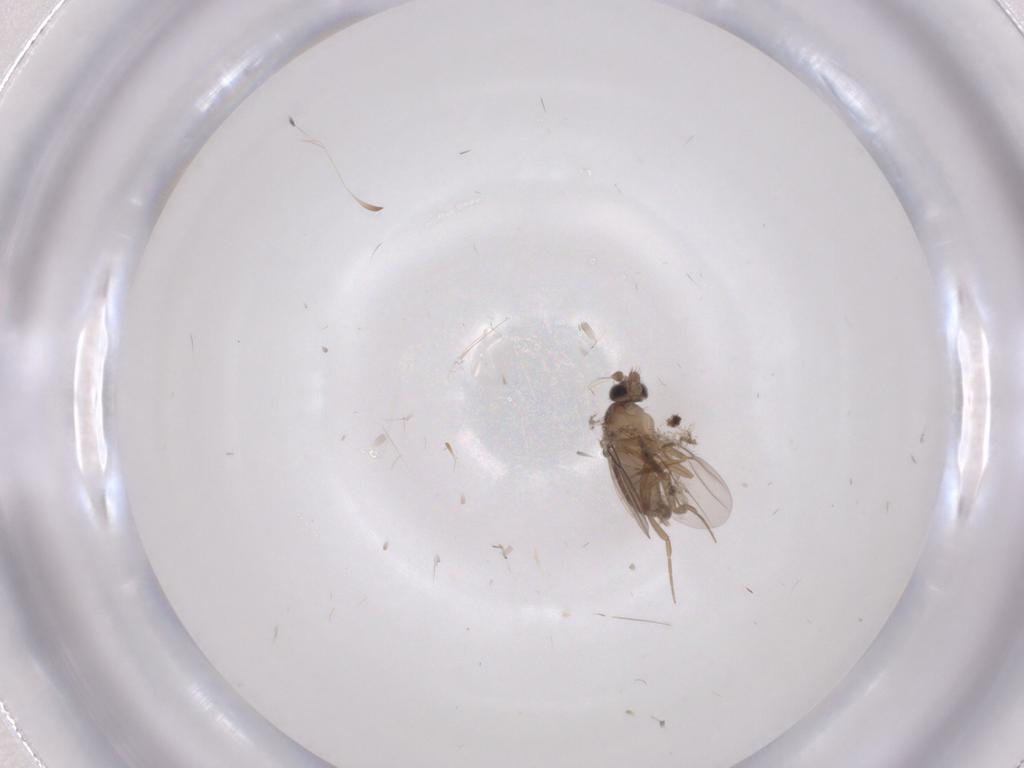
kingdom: Animalia
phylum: Arthropoda
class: Insecta
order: Diptera
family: Phoridae
